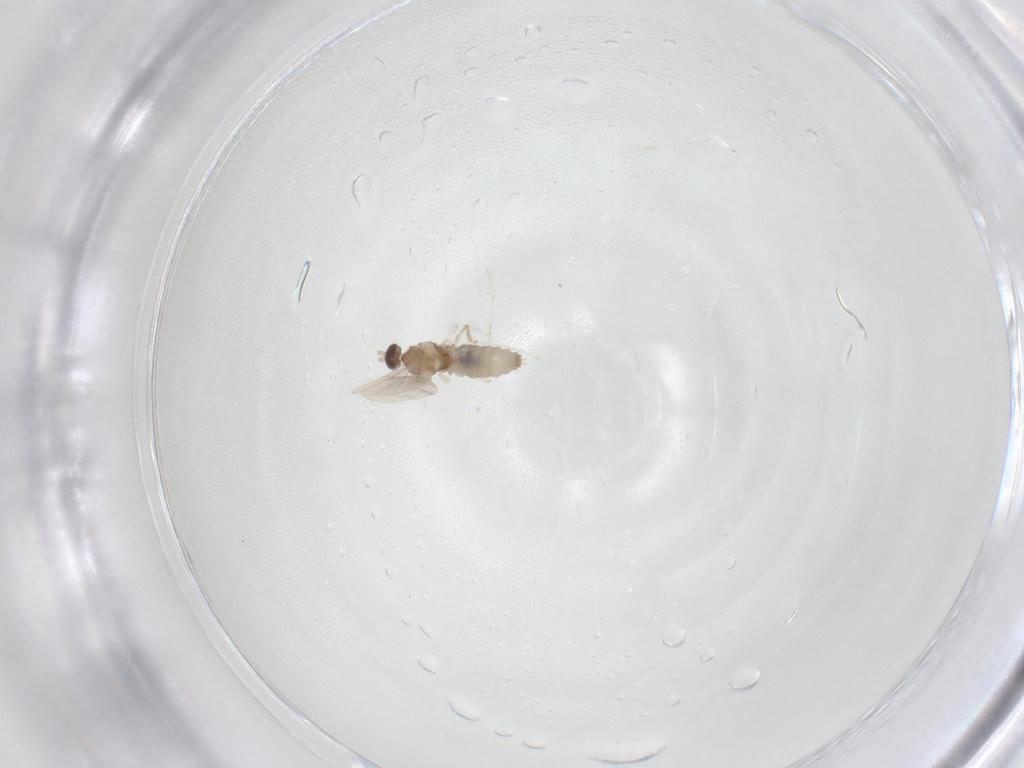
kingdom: Animalia
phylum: Arthropoda
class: Insecta
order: Diptera
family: Cecidomyiidae
